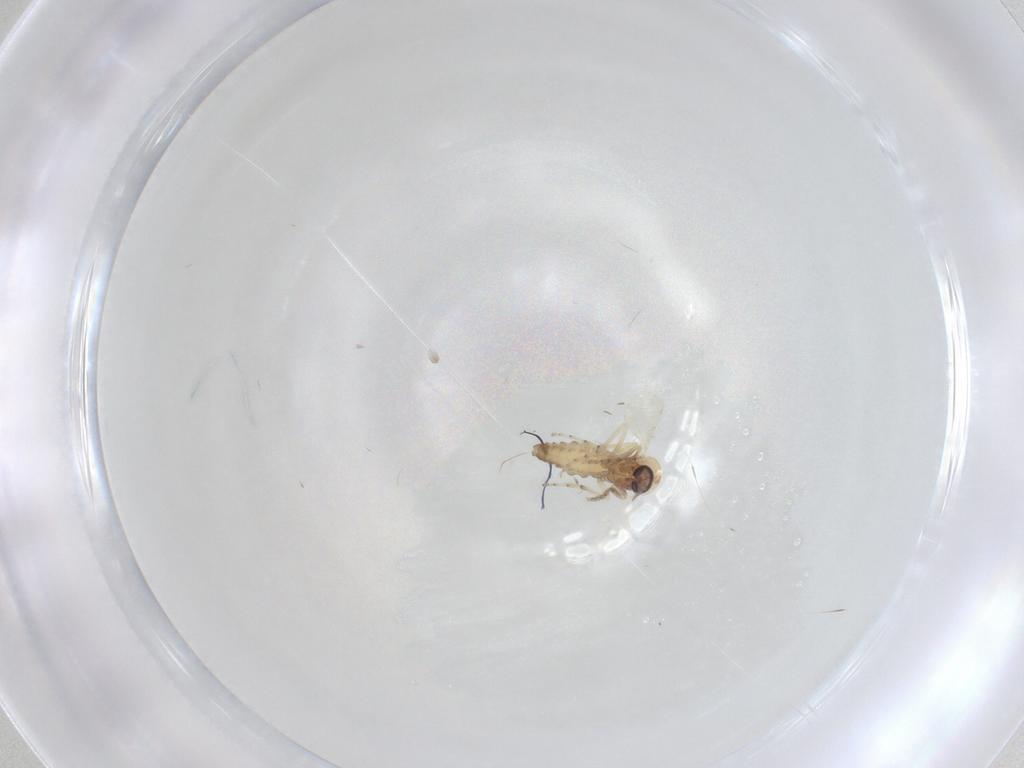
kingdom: Animalia
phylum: Arthropoda
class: Insecta
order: Diptera
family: Ceratopogonidae
